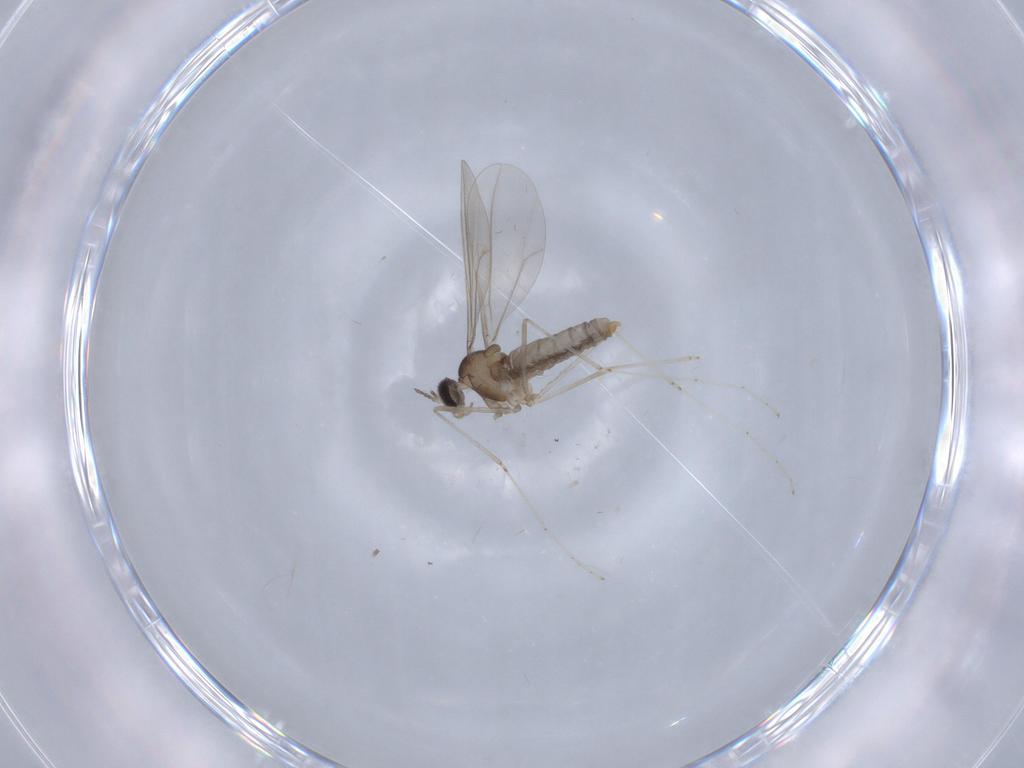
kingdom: Animalia
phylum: Arthropoda
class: Insecta
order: Diptera
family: Cecidomyiidae
